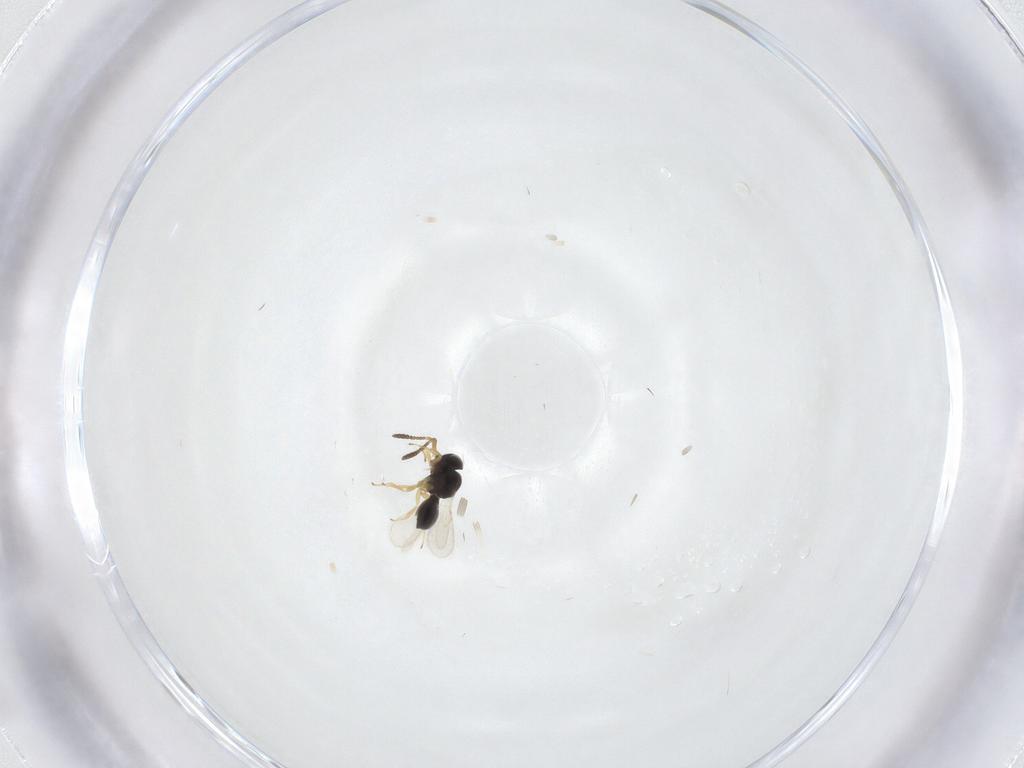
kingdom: Animalia
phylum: Arthropoda
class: Insecta
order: Hymenoptera
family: Scelionidae
